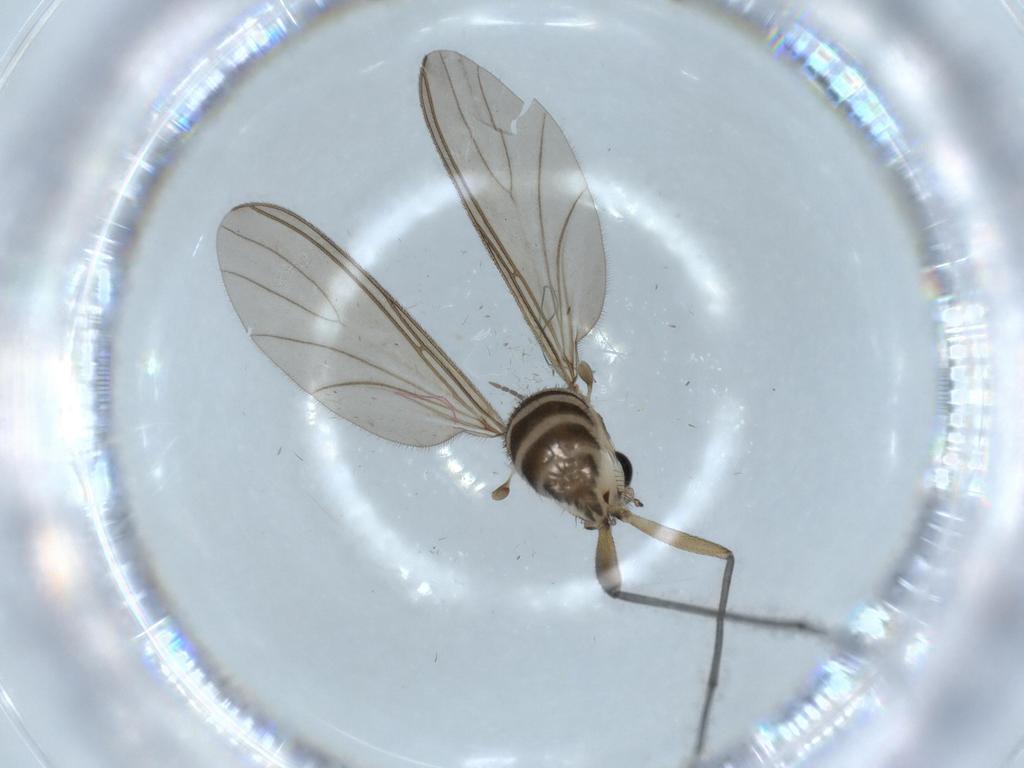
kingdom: Animalia
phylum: Arthropoda
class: Insecta
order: Diptera
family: Sciaridae
